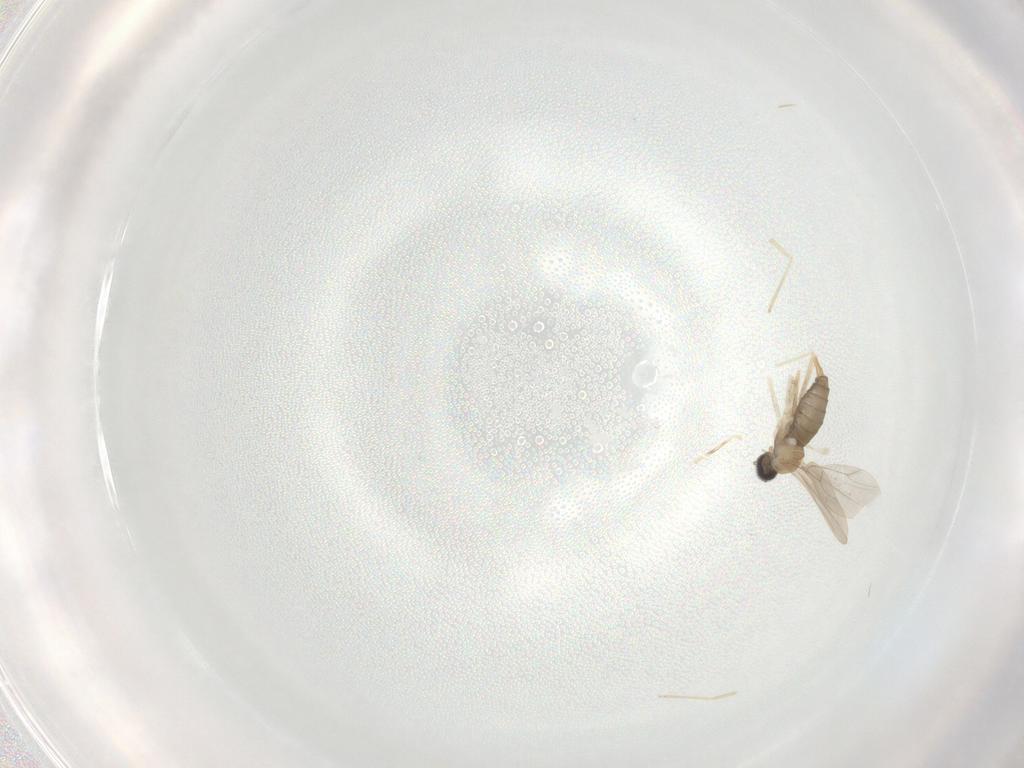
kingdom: Animalia
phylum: Arthropoda
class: Insecta
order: Diptera
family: Cecidomyiidae
